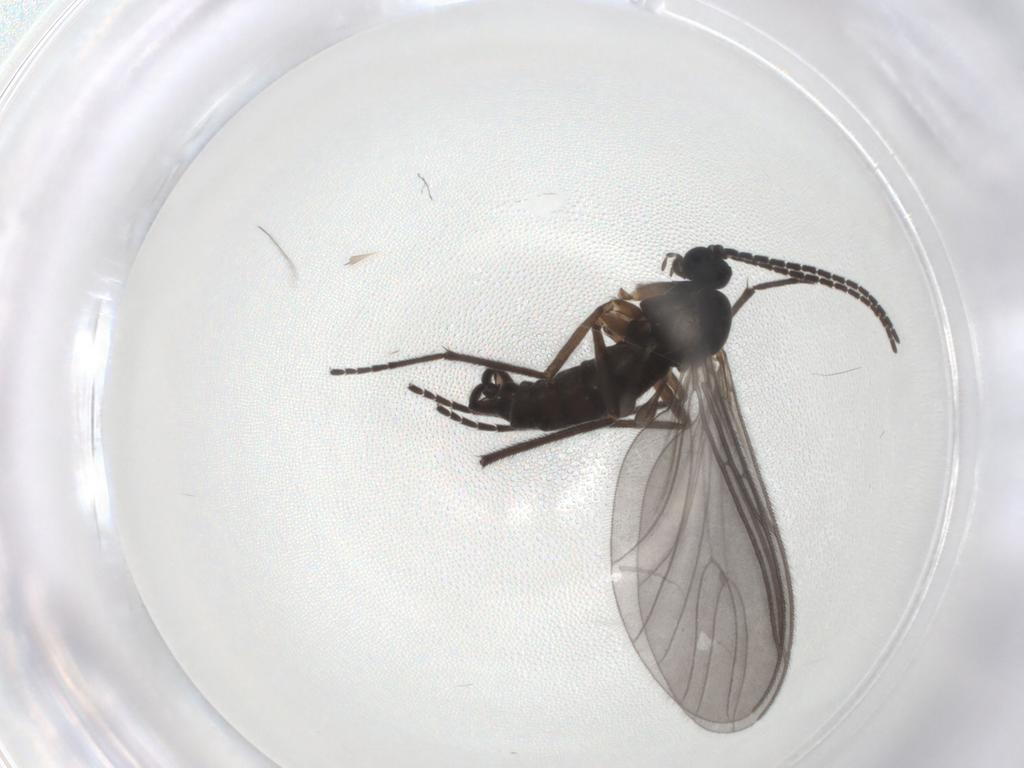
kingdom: Animalia
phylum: Arthropoda
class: Insecta
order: Diptera
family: Sciaridae
